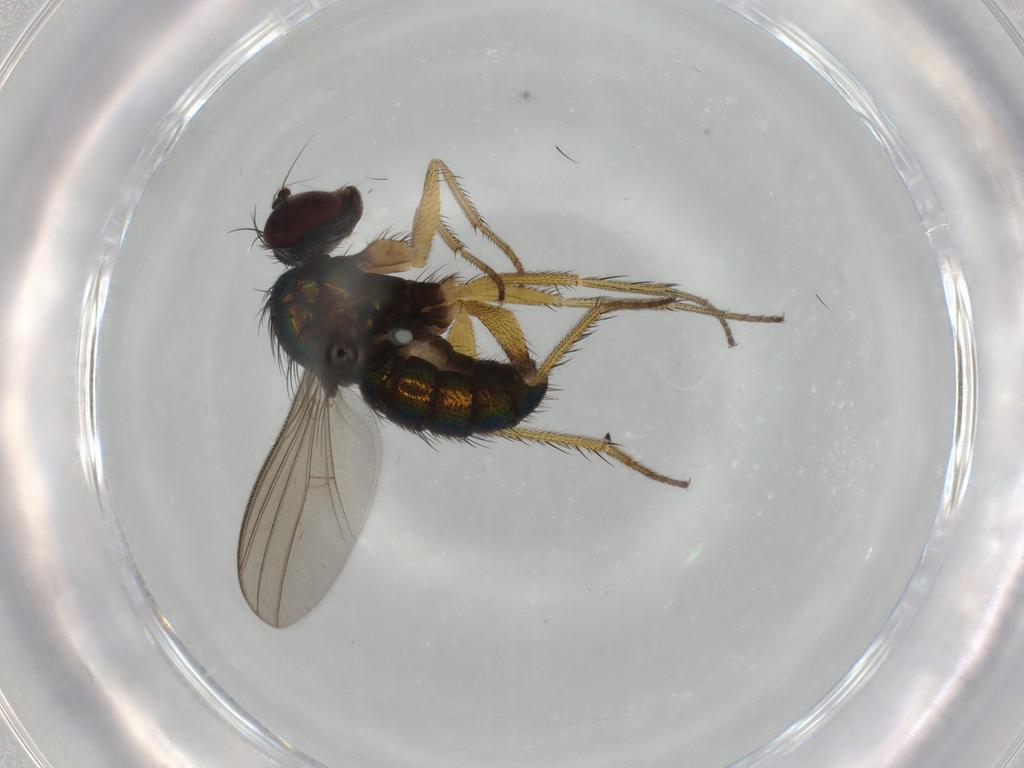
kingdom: Animalia
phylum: Arthropoda
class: Insecta
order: Diptera
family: Dolichopodidae
